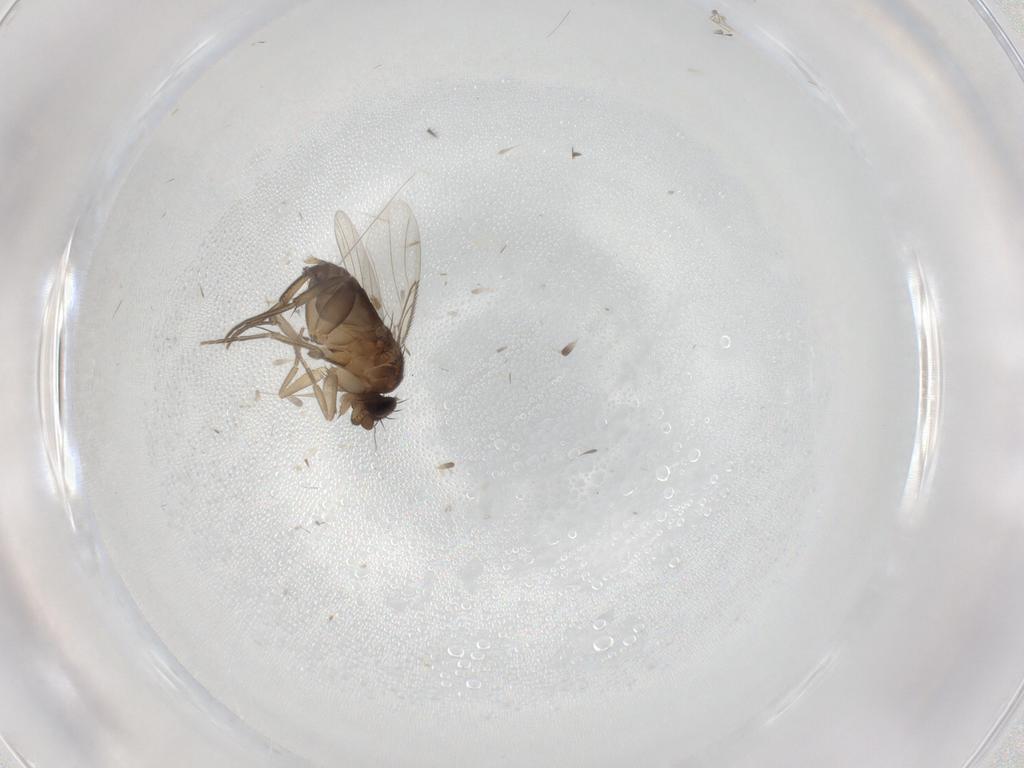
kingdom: Animalia
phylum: Arthropoda
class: Insecta
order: Diptera
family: Phoridae
